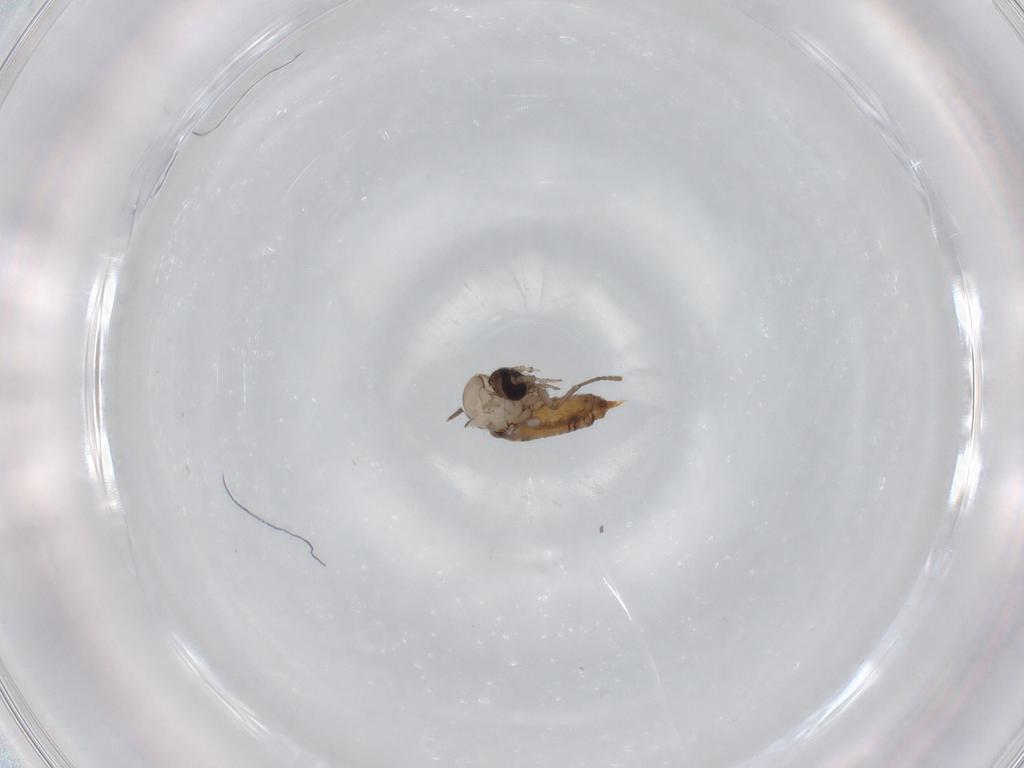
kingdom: Animalia
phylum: Arthropoda
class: Insecta
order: Diptera
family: Psychodidae
